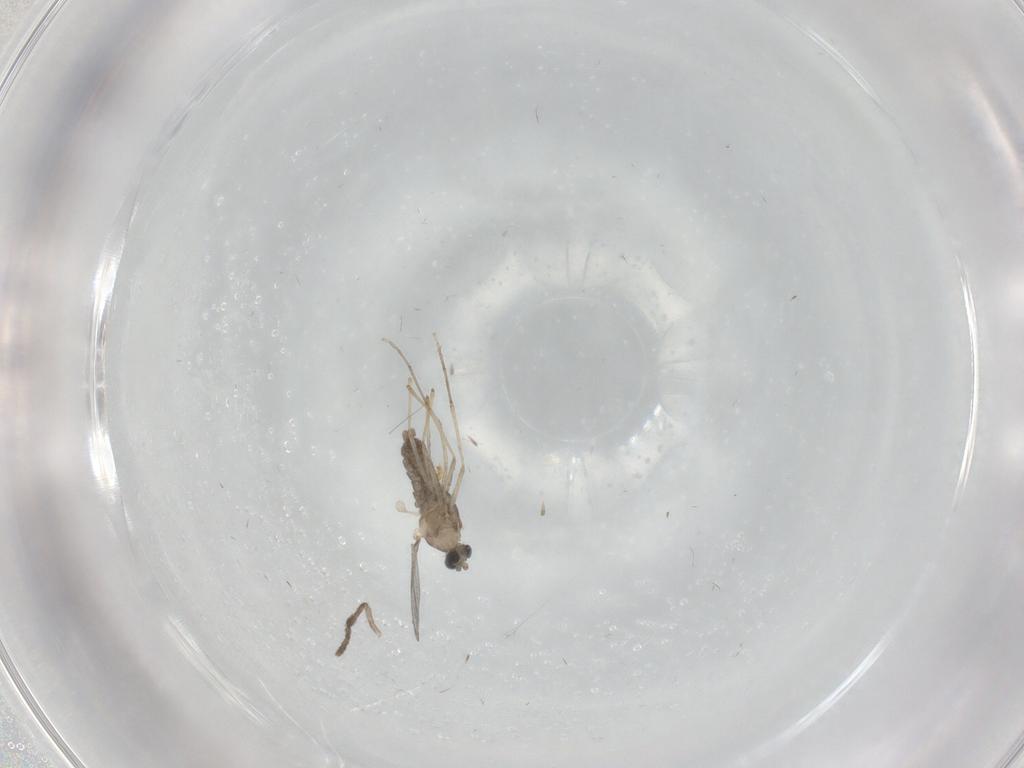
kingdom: Animalia
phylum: Arthropoda
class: Insecta
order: Diptera
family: Cecidomyiidae
